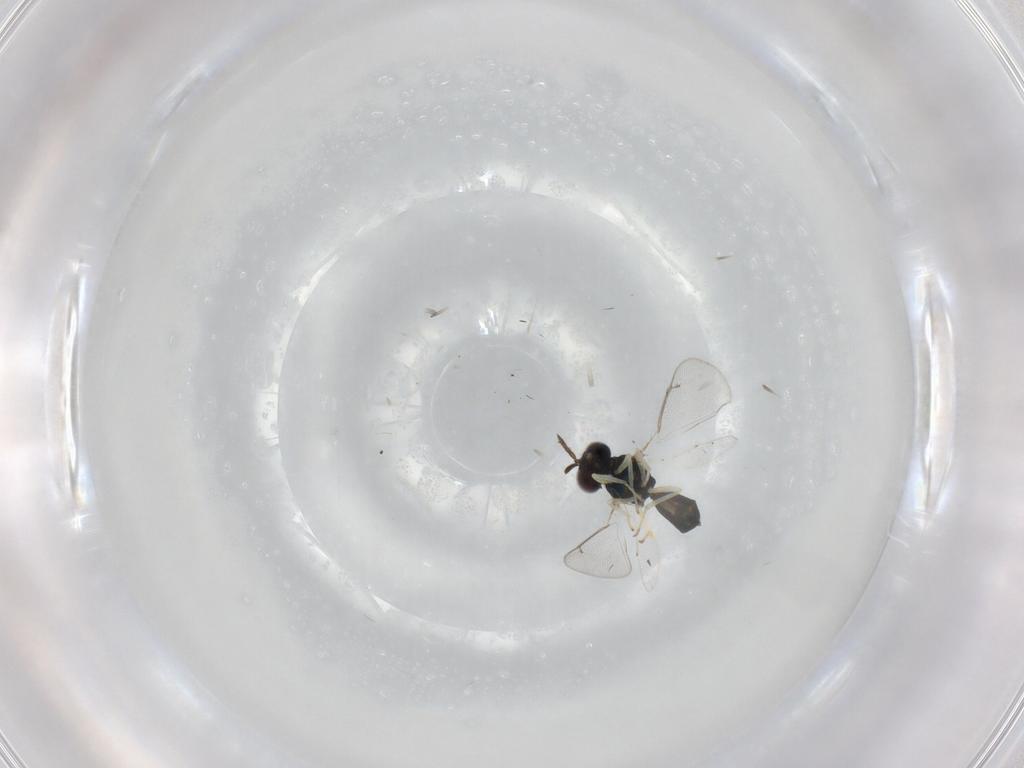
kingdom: Animalia
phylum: Arthropoda
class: Insecta
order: Hymenoptera
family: Eulophidae
